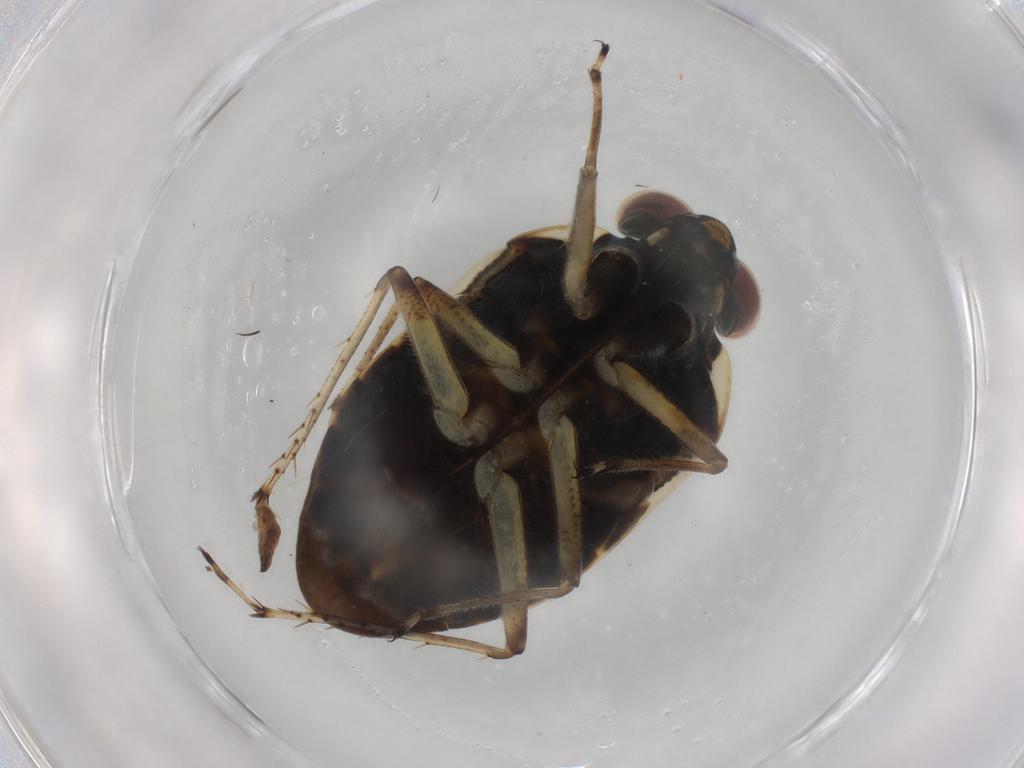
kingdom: Animalia
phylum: Arthropoda
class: Insecta
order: Hemiptera
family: Ochteridae
